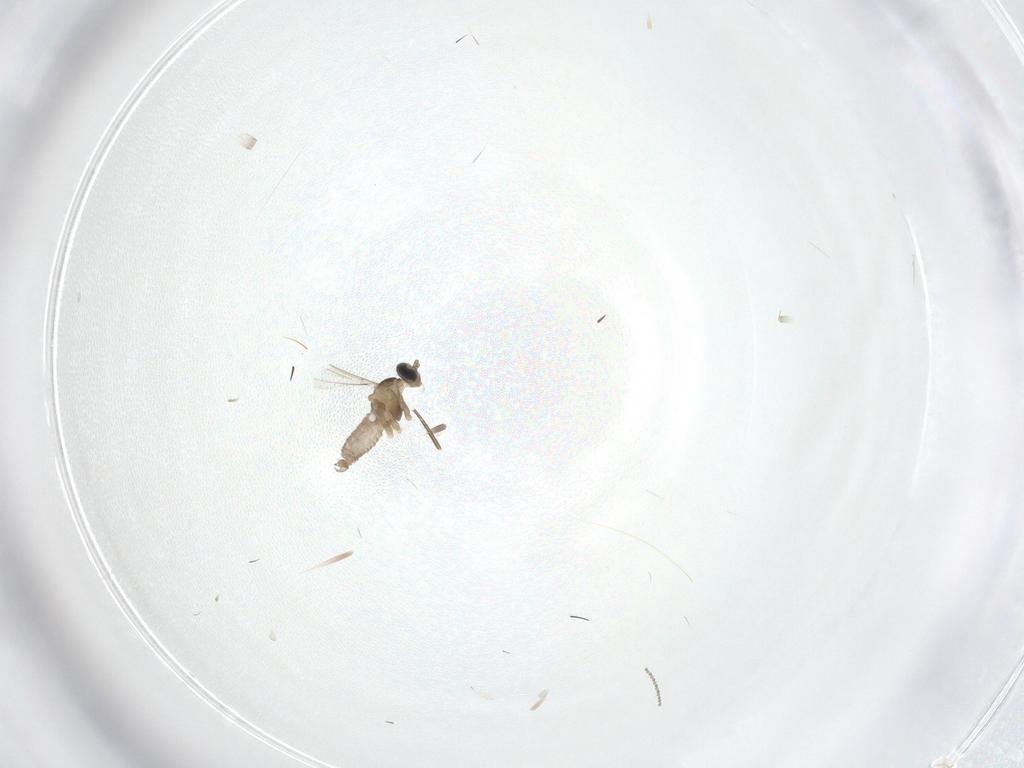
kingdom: Animalia
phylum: Arthropoda
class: Insecta
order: Diptera
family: Cecidomyiidae
